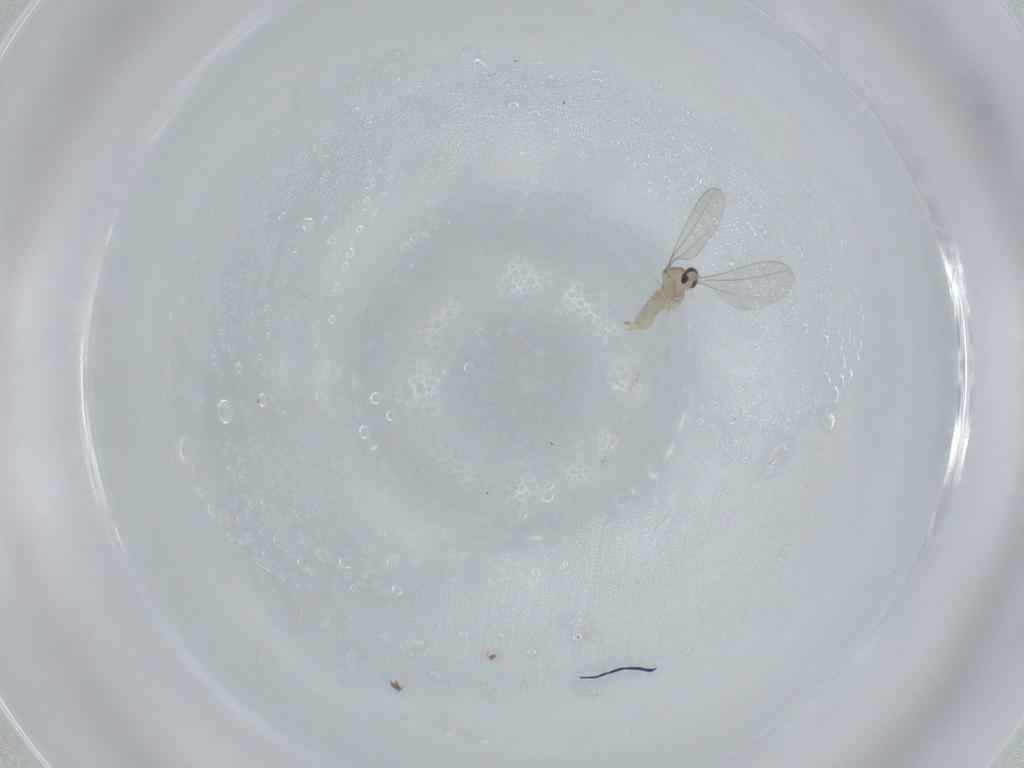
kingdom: Animalia
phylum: Arthropoda
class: Insecta
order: Diptera
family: Cecidomyiidae
